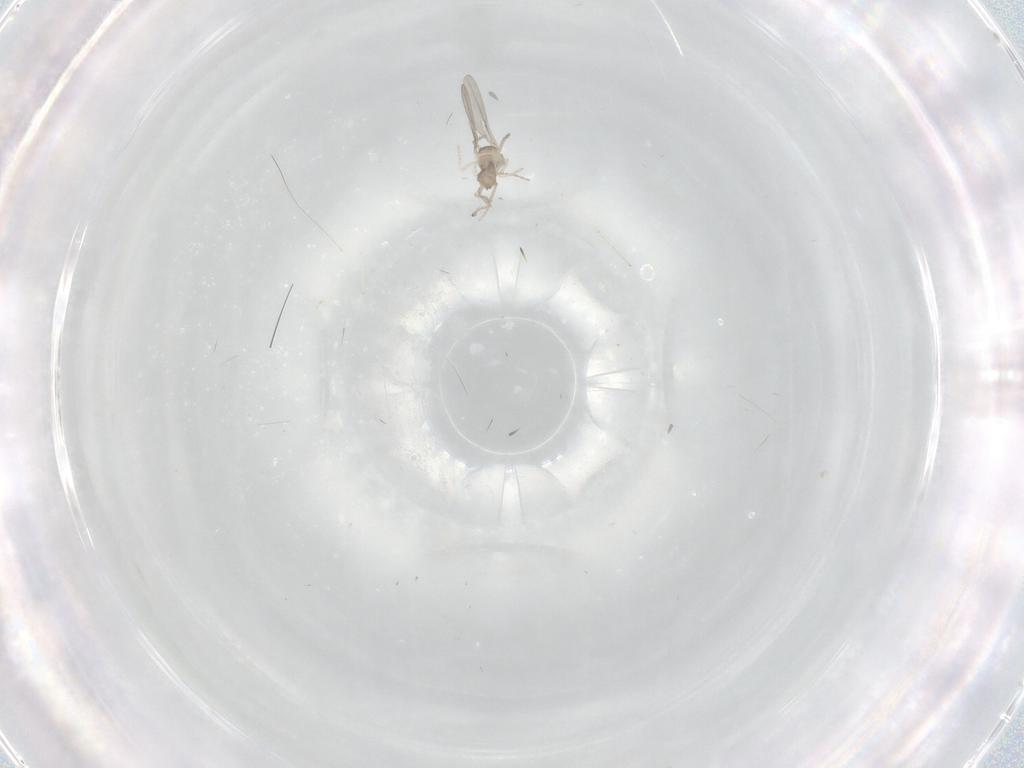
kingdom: Animalia
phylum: Arthropoda
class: Insecta
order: Diptera
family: Cecidomyiidae
